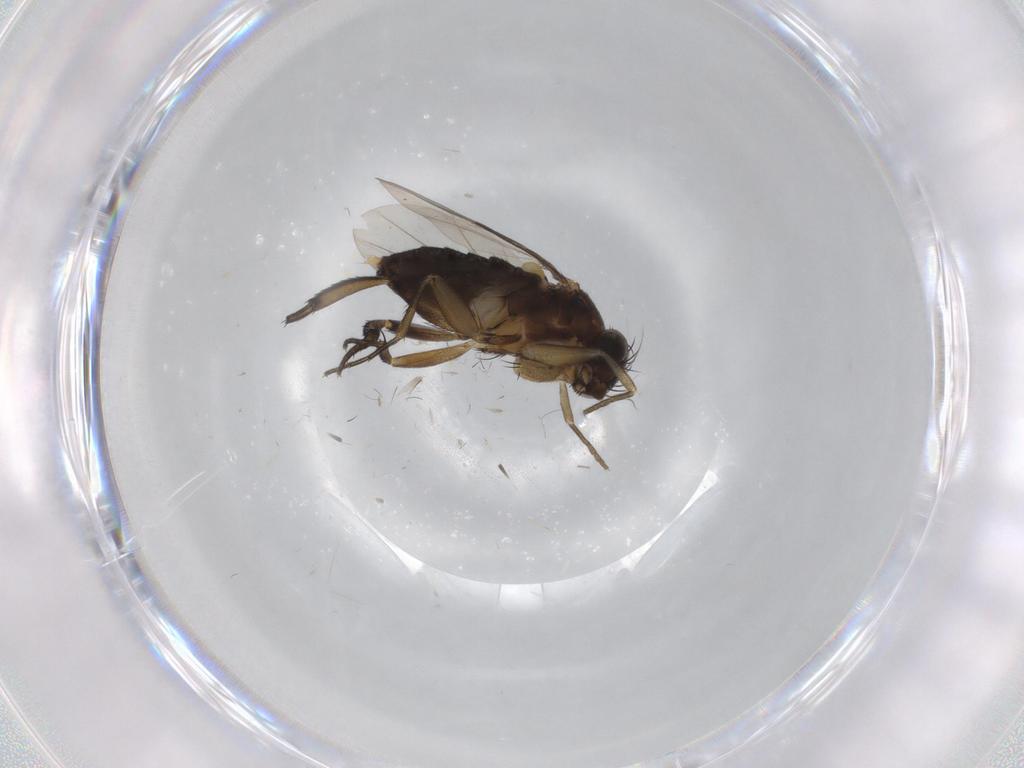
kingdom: Animalia
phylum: Arthropoda
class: Insecta
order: Diptera
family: Phoridae
